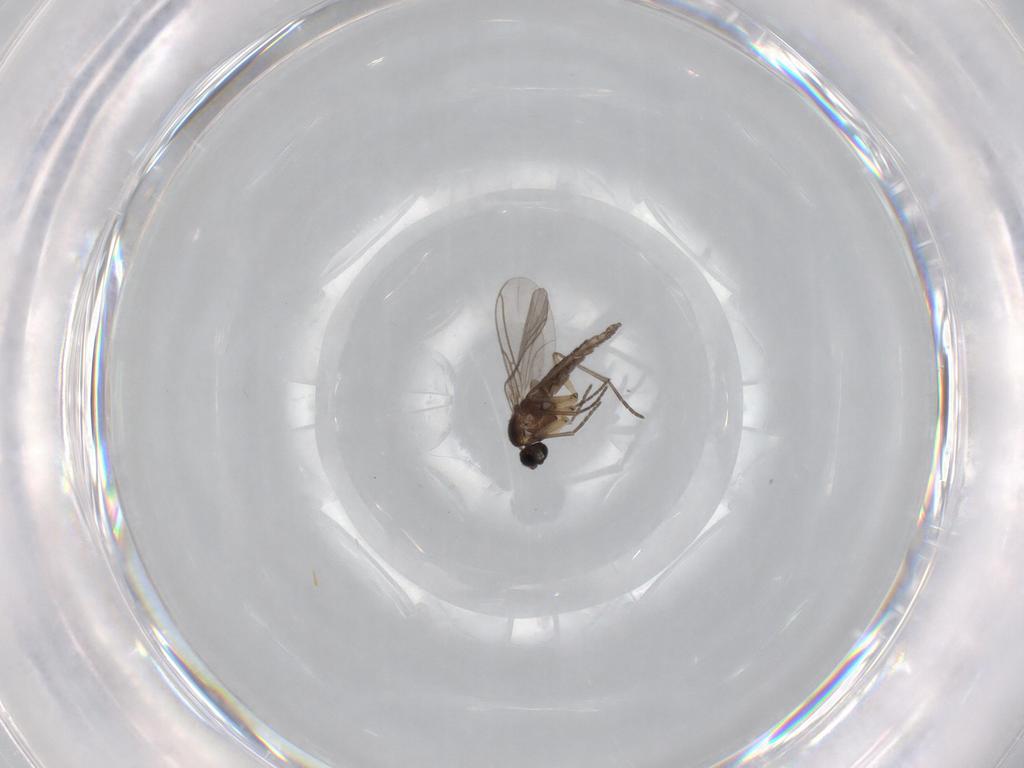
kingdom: Animalia
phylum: Arthropoda
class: Insecta
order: Diptera
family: Sciaridae
